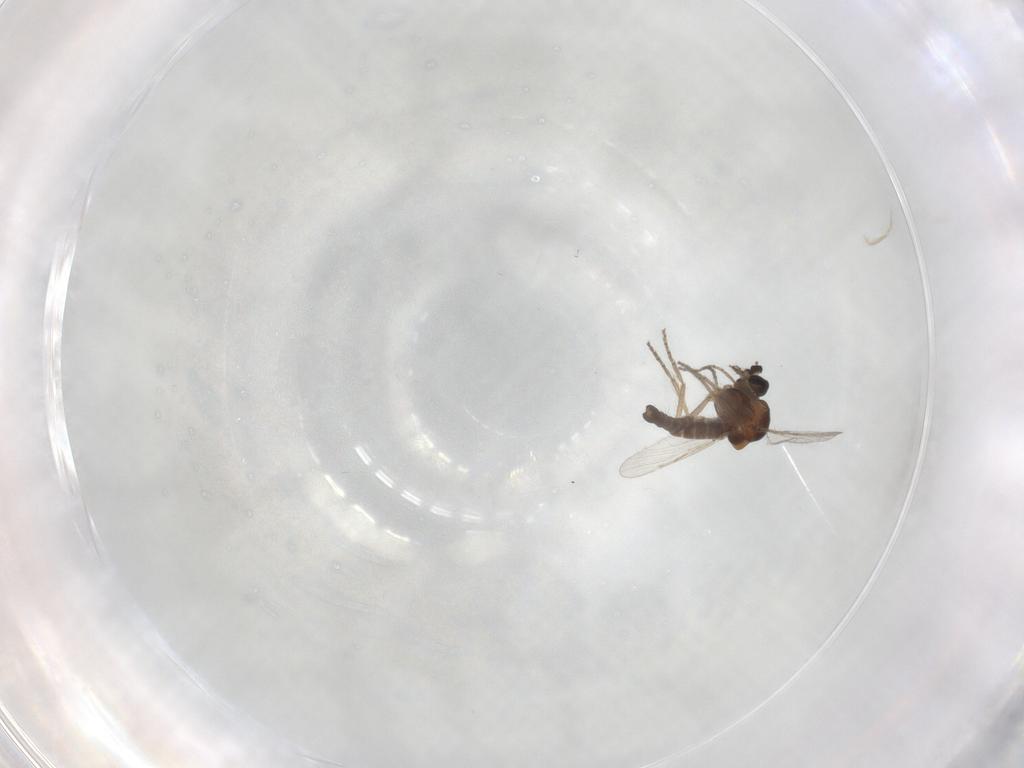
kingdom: Animalia
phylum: Arthropoda
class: Insecta
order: Diptera
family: Ceratopogonidae
